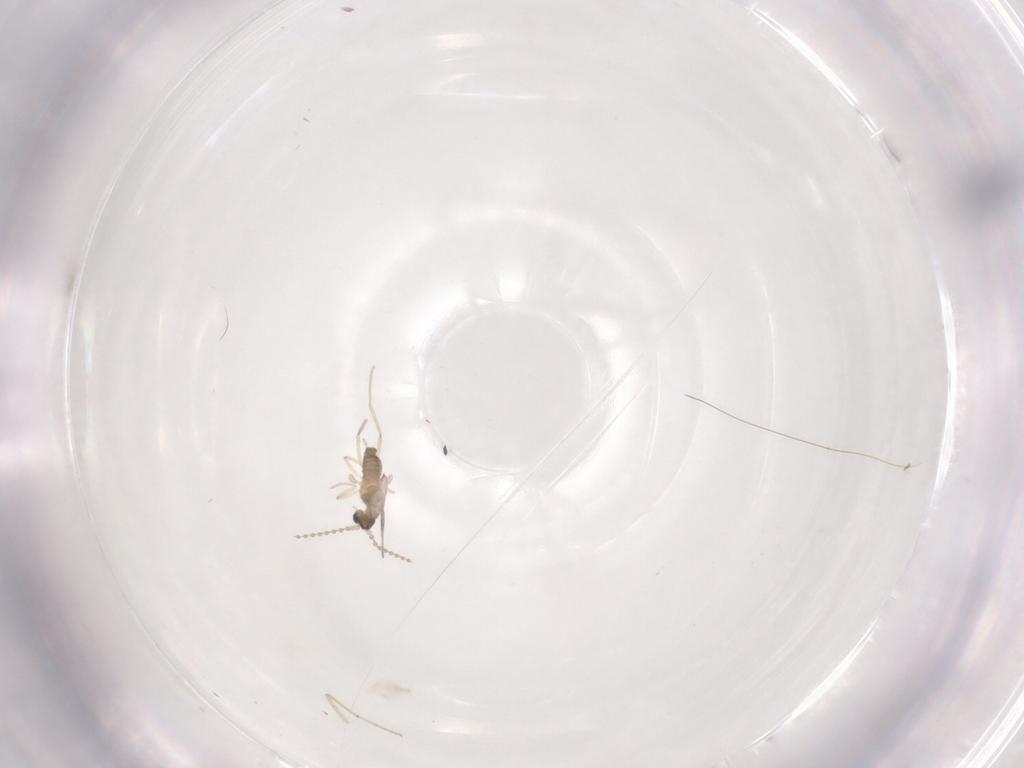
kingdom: Animalia
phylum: Arthropoda
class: Insecta
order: Diptera
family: Cecidomyiidae
